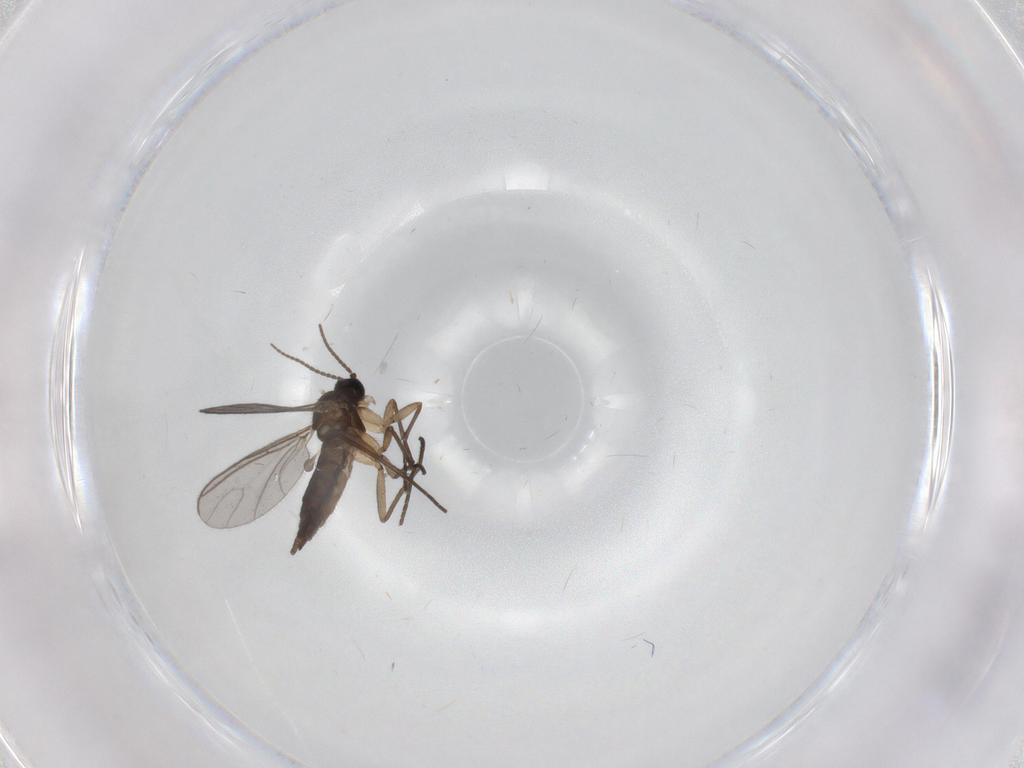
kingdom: Animalia
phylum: Arthropoda
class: Insecta
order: Diptera
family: Sciaridae
